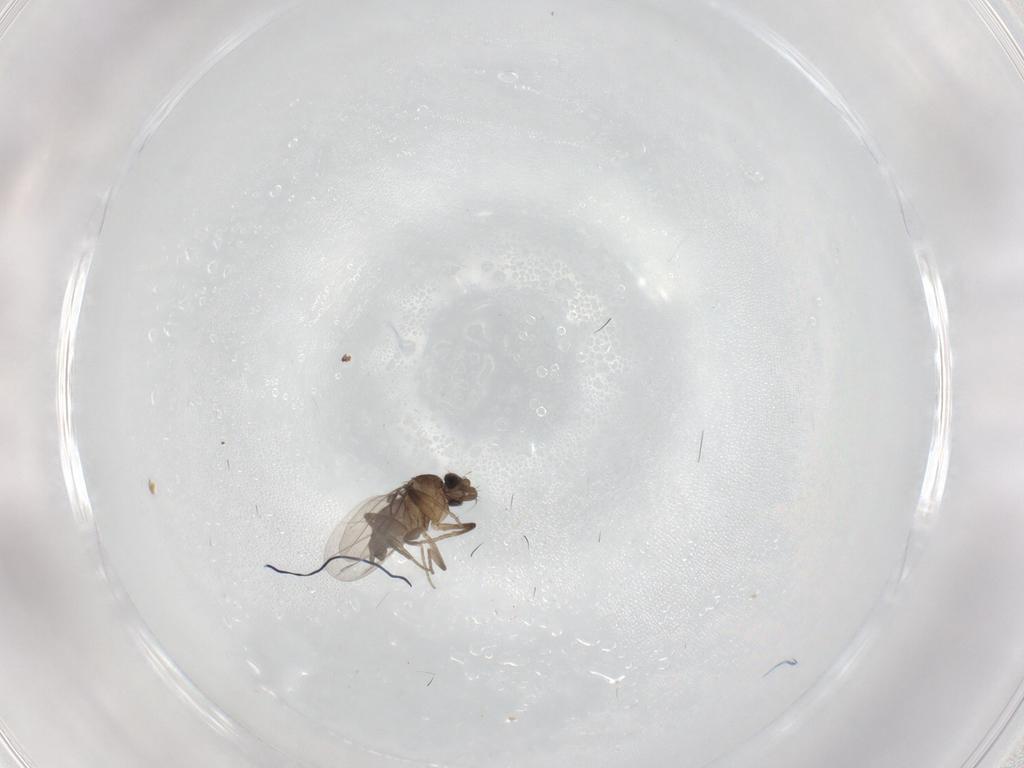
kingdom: Animalia
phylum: Arthropoda
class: Insecta
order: Diptera
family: Phoridae
